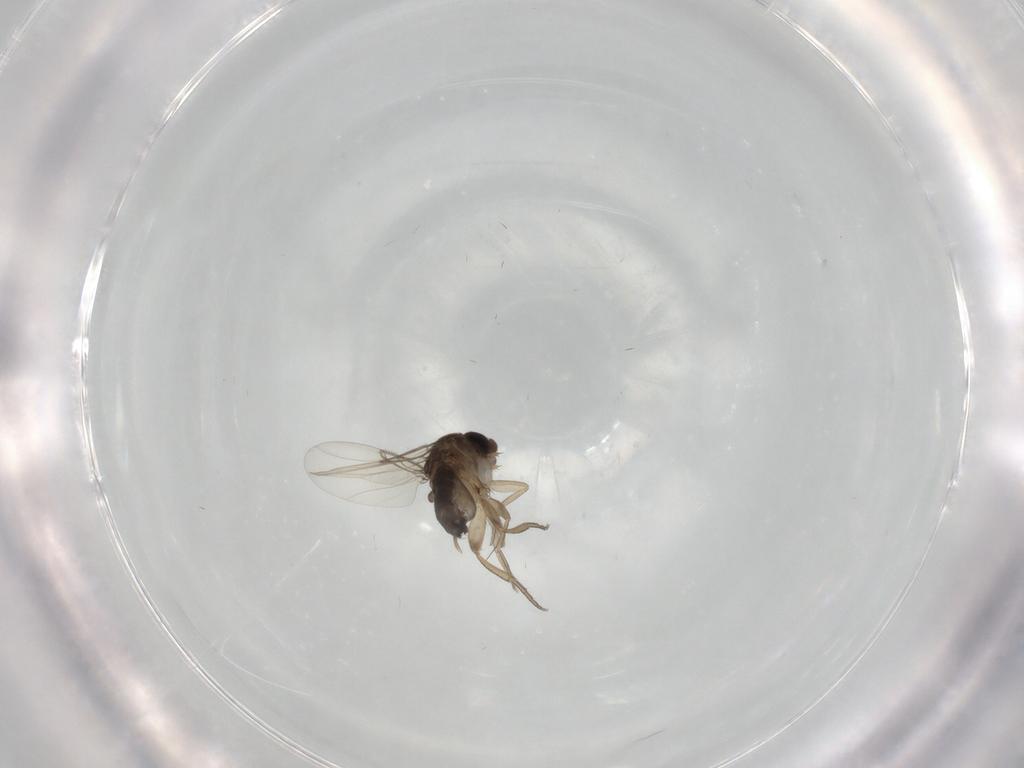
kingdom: Animalia
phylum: Arthropoda
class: Insecta
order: Diptera
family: Phoridae
